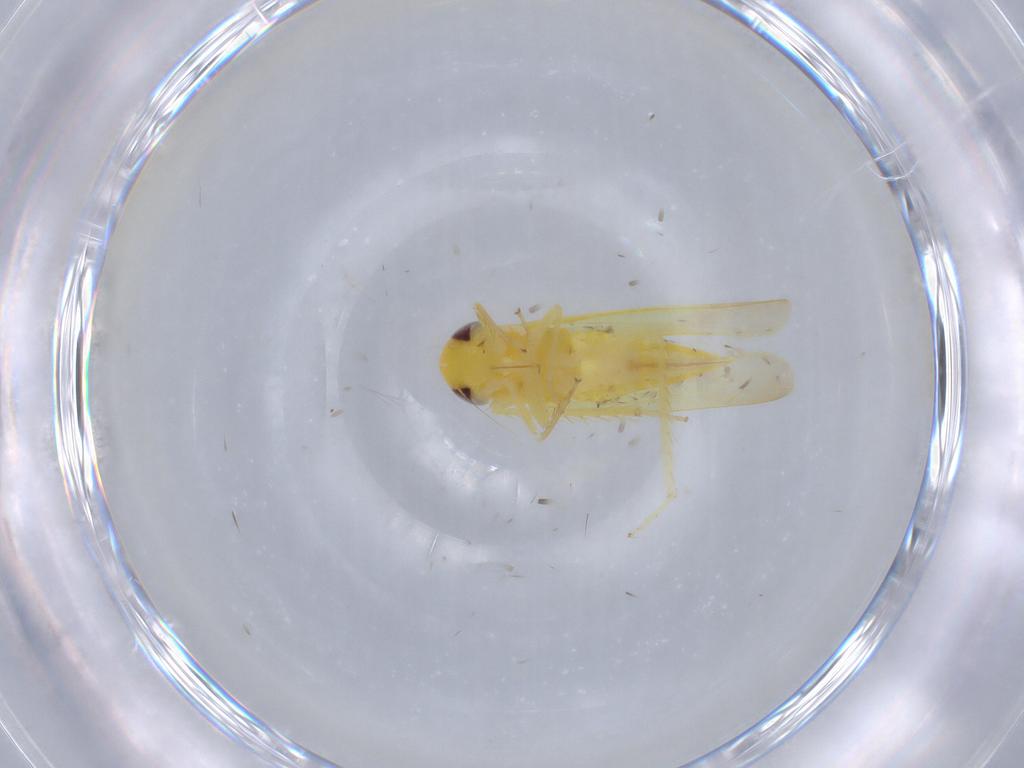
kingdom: Animalia
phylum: Arthropoda
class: Insecta
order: Hemiptera
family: Cicadellidae
